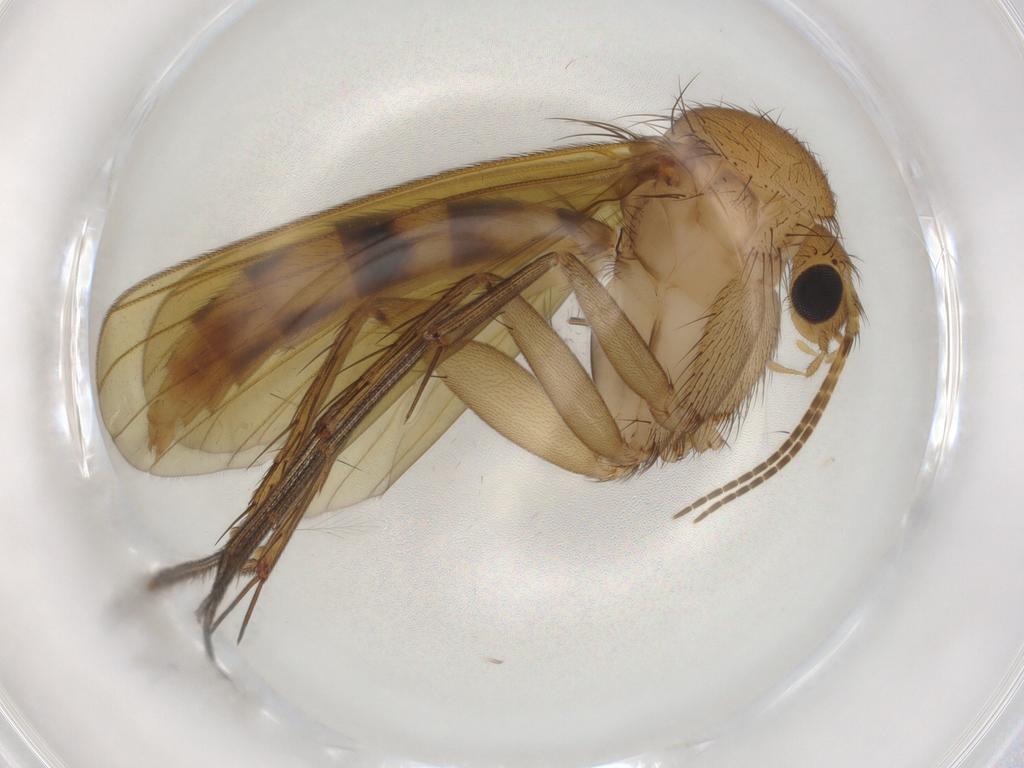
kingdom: Animalia
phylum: Arthropoda
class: Insecta
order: Diptera
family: Mycetophilidae
